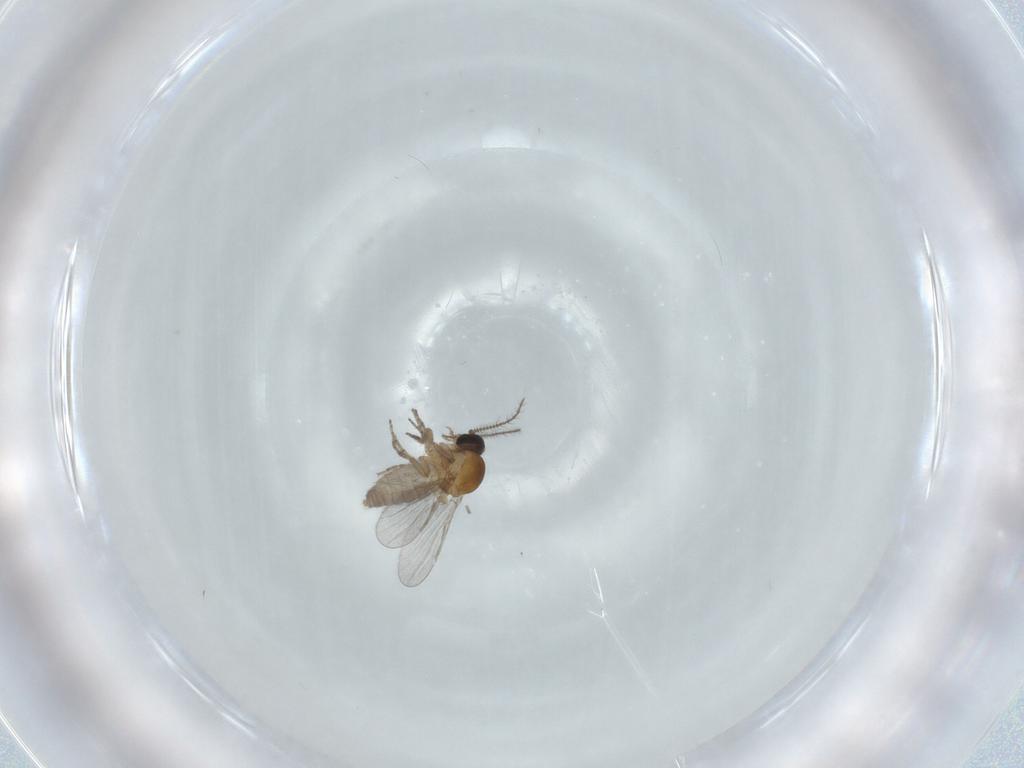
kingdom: Animalia
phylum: Arthropoda
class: Insecta
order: Diptera
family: Ceratopogonidae
